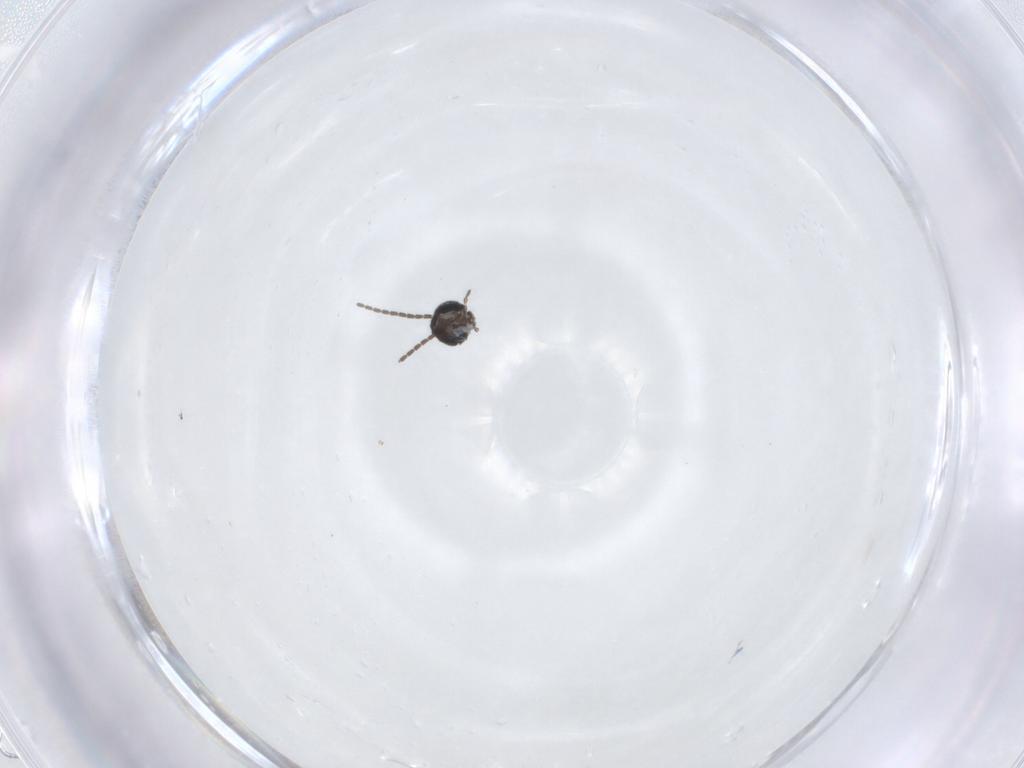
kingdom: Animalia
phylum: Arthropoda
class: Insecta
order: Diptera
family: Sciaridae
